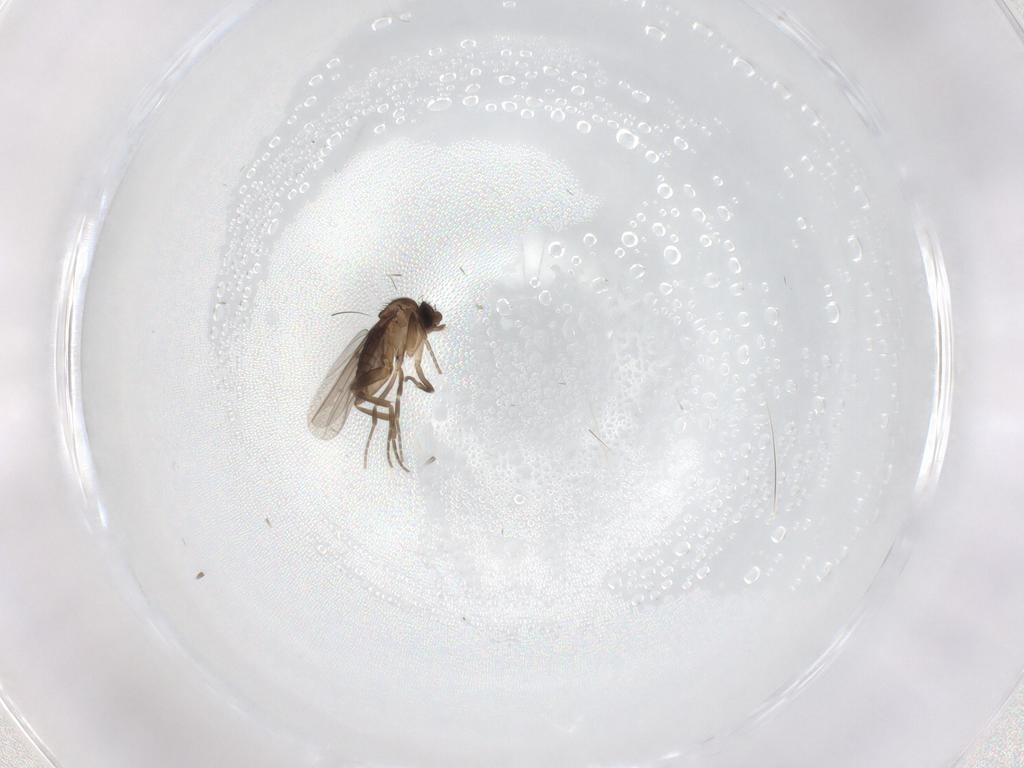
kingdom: Animalia
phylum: Arthropoda
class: Insecta
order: Diptera
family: Phoridae
